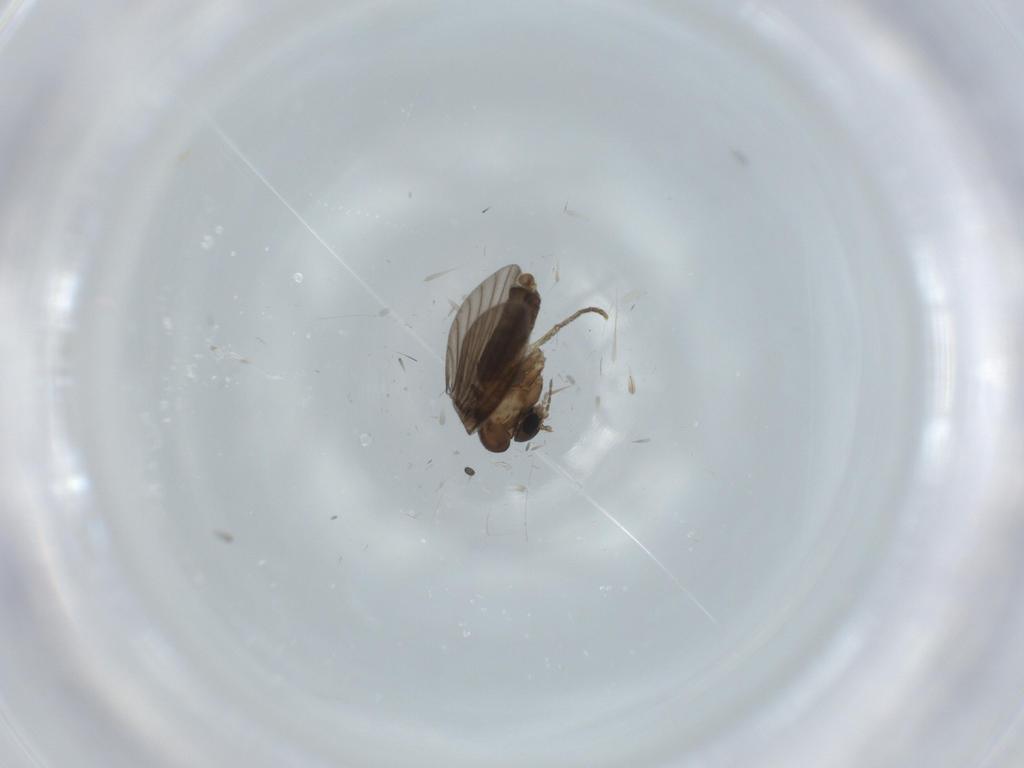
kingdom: Animalia
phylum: Arthropoda
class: Insecta
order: Diptera
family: Psychodidae
